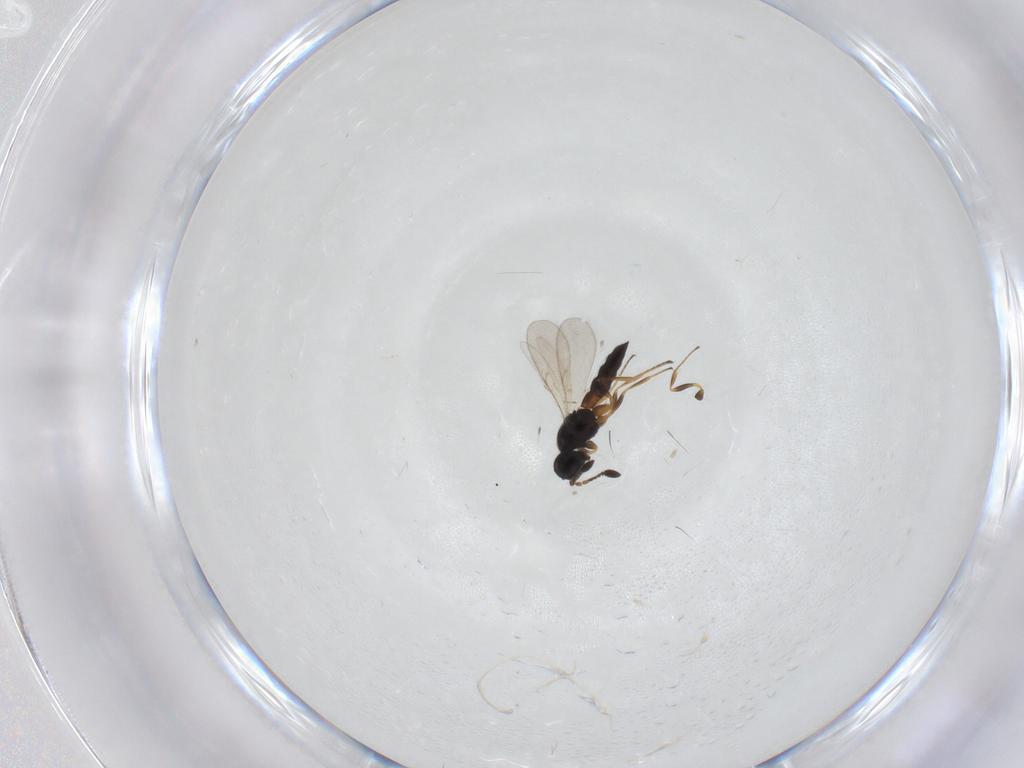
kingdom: Animalia
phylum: Arthropoda
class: Insecta
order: Hymenoptera
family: Scelionidae
